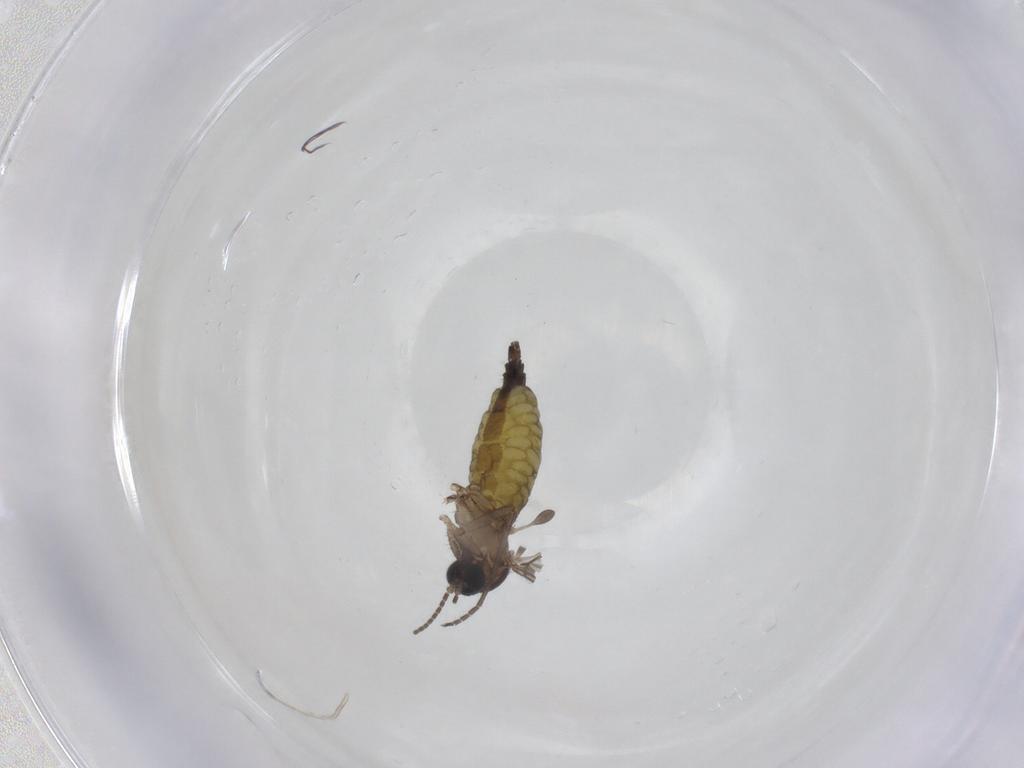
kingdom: Animalia
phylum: Arthropoda
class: Insecta
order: Diptera
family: Sciaridae
